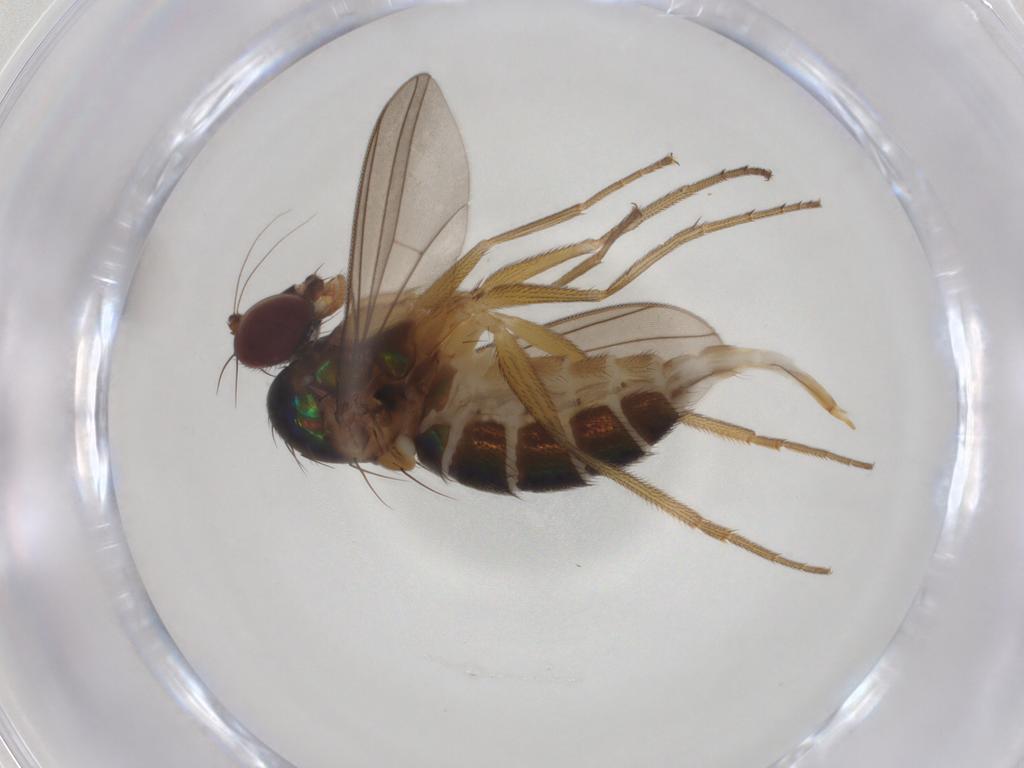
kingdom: Animalia
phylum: Arthropoda
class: Insecta
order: Diptera
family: Dolichopodidae
